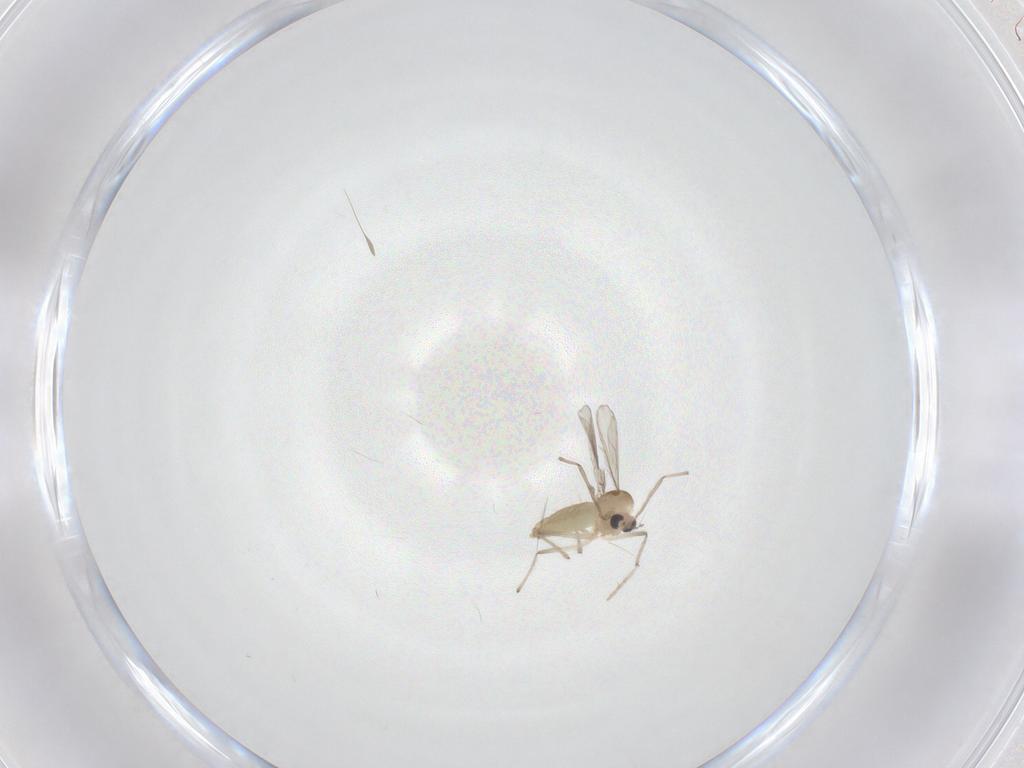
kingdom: Animalia
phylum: Arthropoda
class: Insecta
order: Diptera
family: Chironomidae
